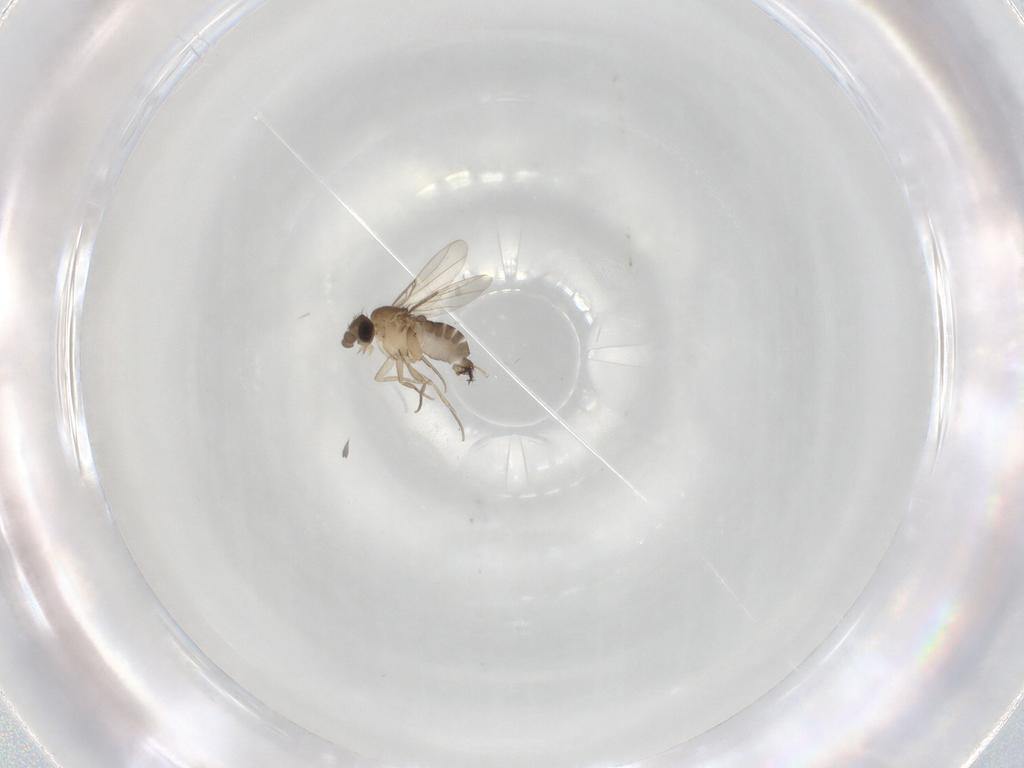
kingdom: Animalia
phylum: Arthropoda
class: Insecta
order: Diptera
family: Phoridae
